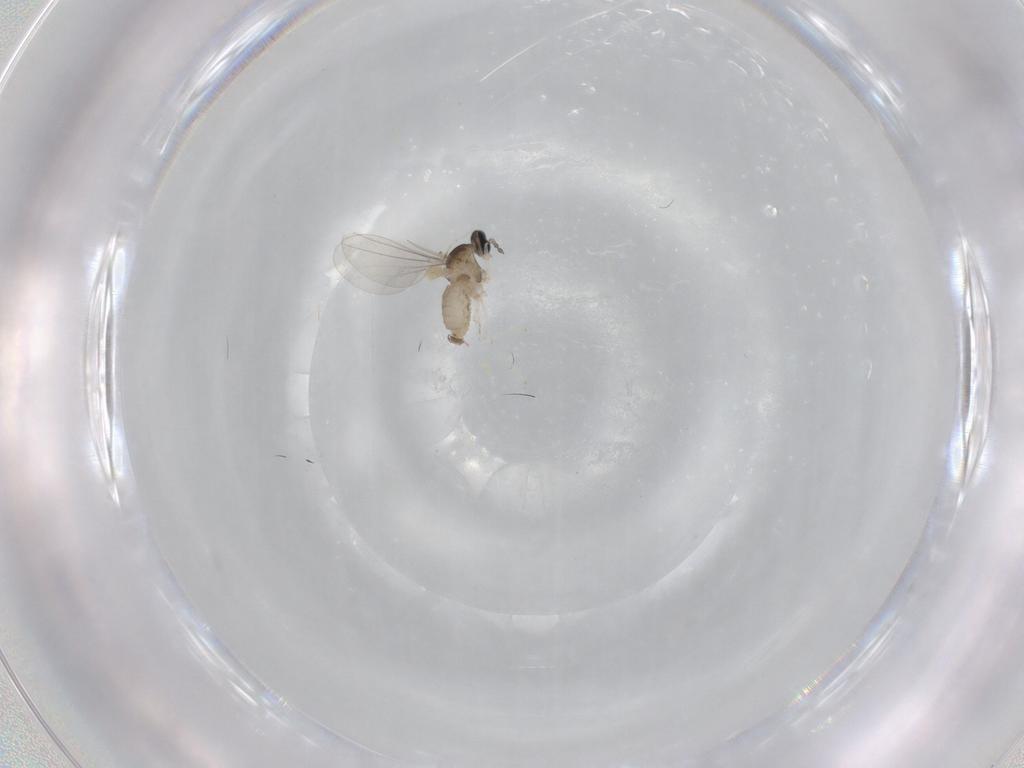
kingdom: Animalia
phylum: Arthropoda
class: Insecta
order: Diptera
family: Cecidomyiidae
